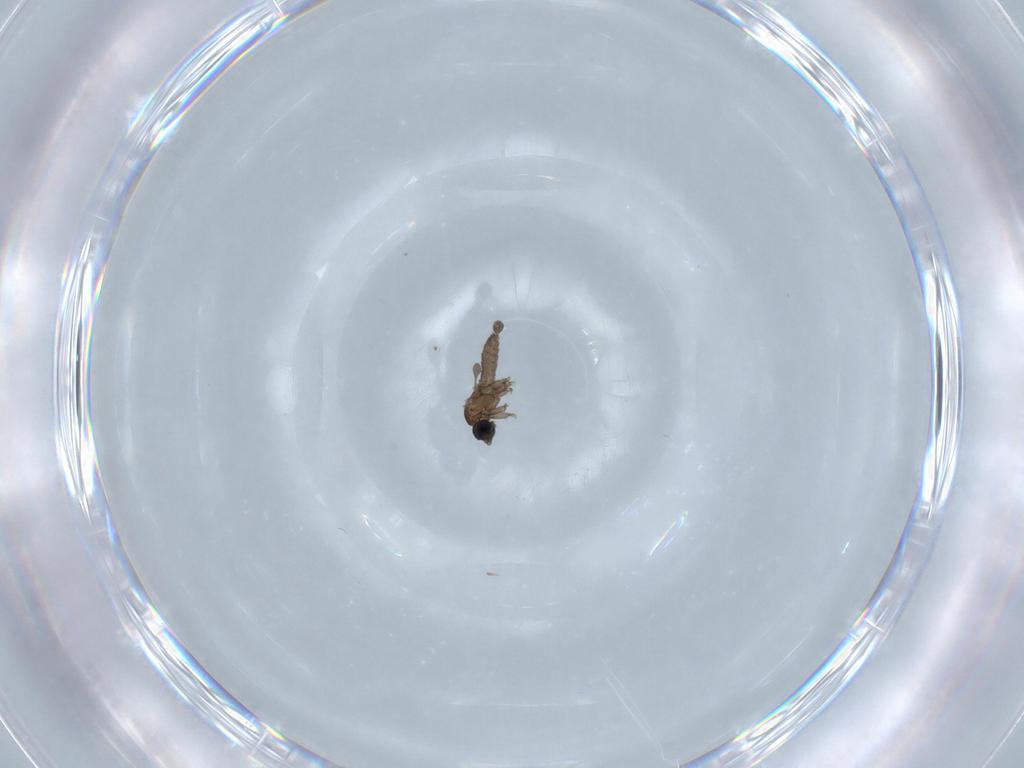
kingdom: Animalia
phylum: Arthropoda
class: Insecta
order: Diptera
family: Sciaridae
